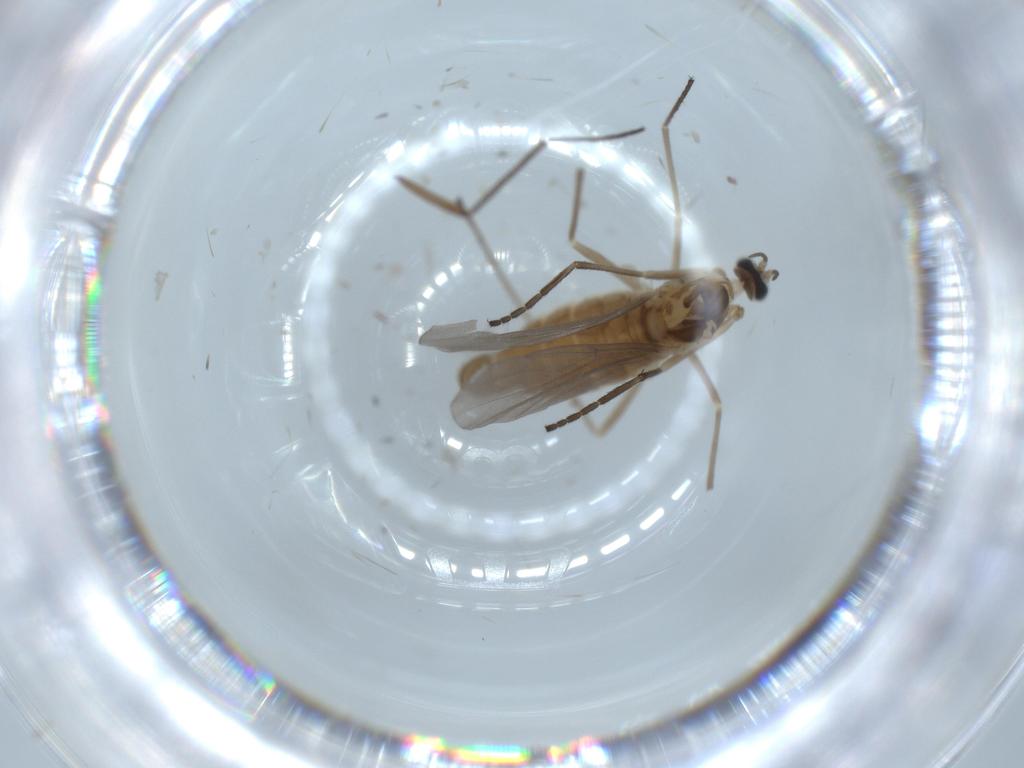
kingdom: Animalia
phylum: Arthropoda
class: Insecta
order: Diptera
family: Cecidomyiidae
